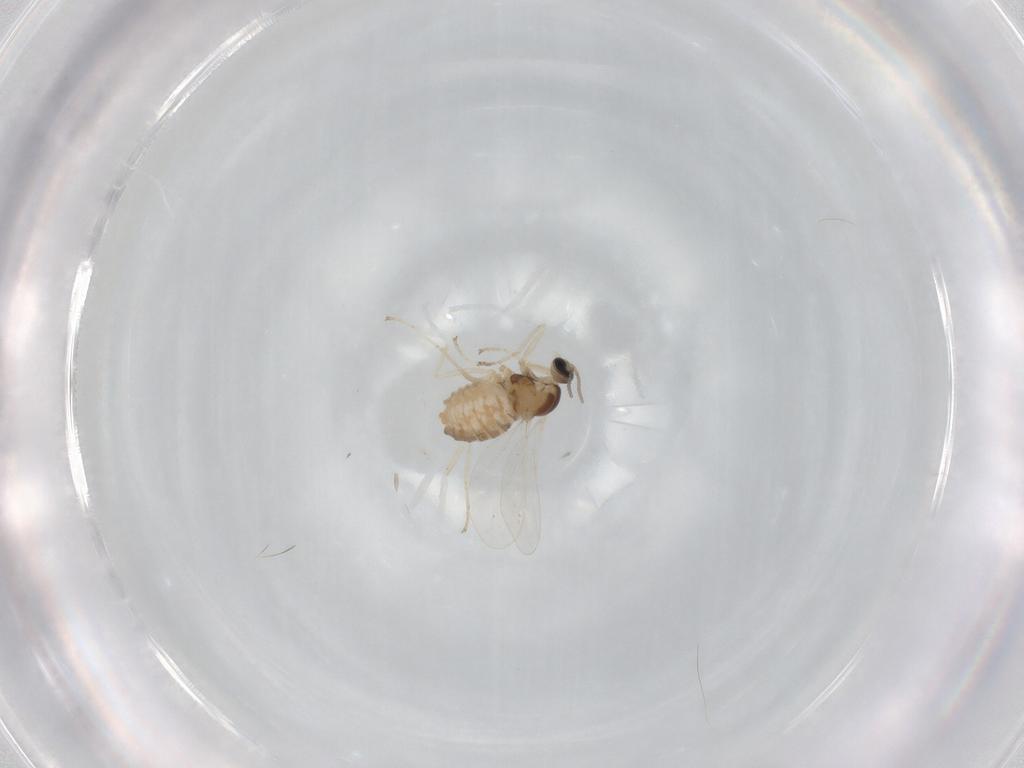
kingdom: Animalia
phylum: Arthropoda
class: Insecta
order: Diptera
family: Cecidomyiidae
